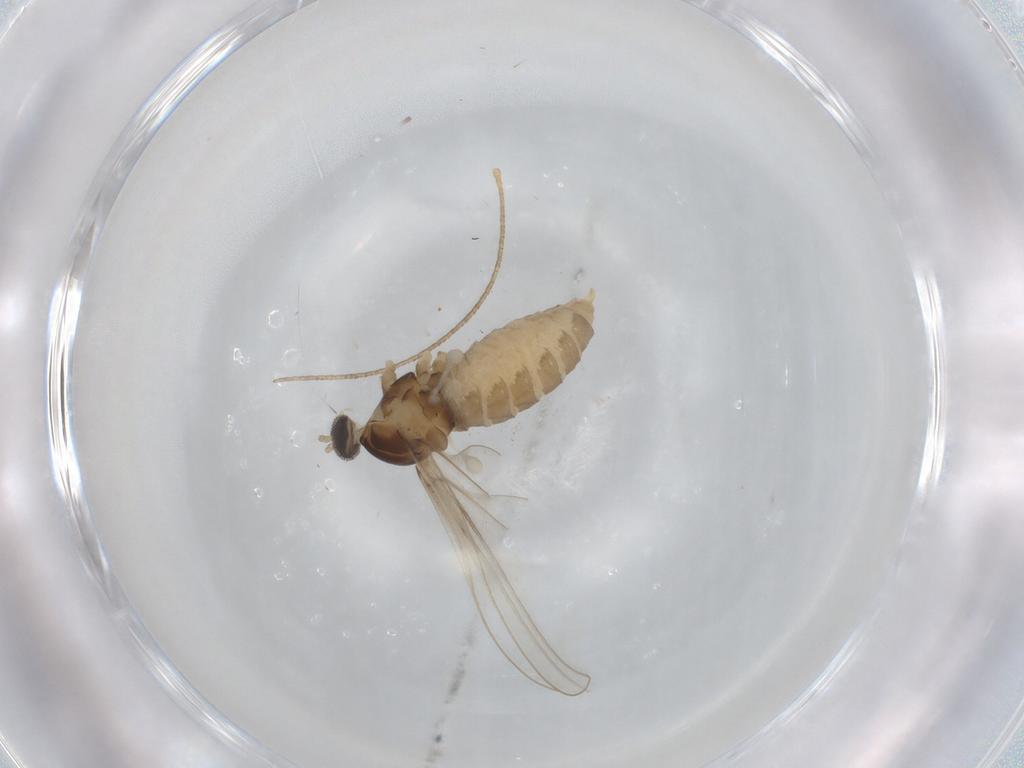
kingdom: Animalia
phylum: Arthropoda
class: Insecta
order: Diptera
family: Cecidomyiidae
